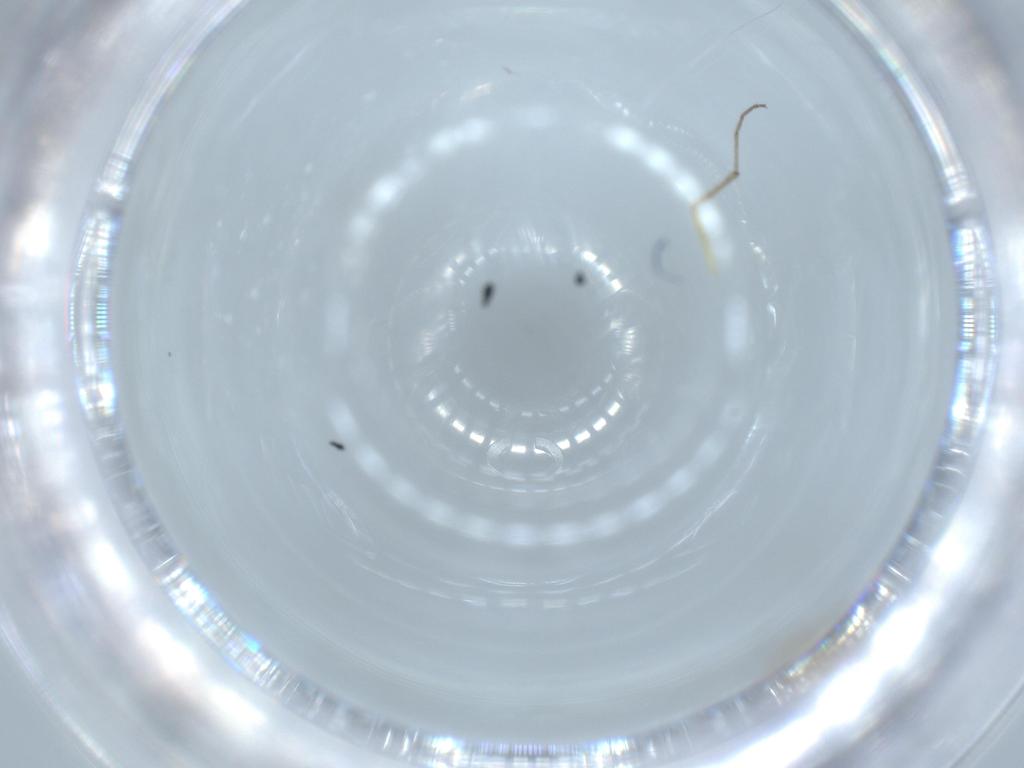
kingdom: Animalia
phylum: Arthropoda
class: Insecta
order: Diptera
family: Chironomidae
